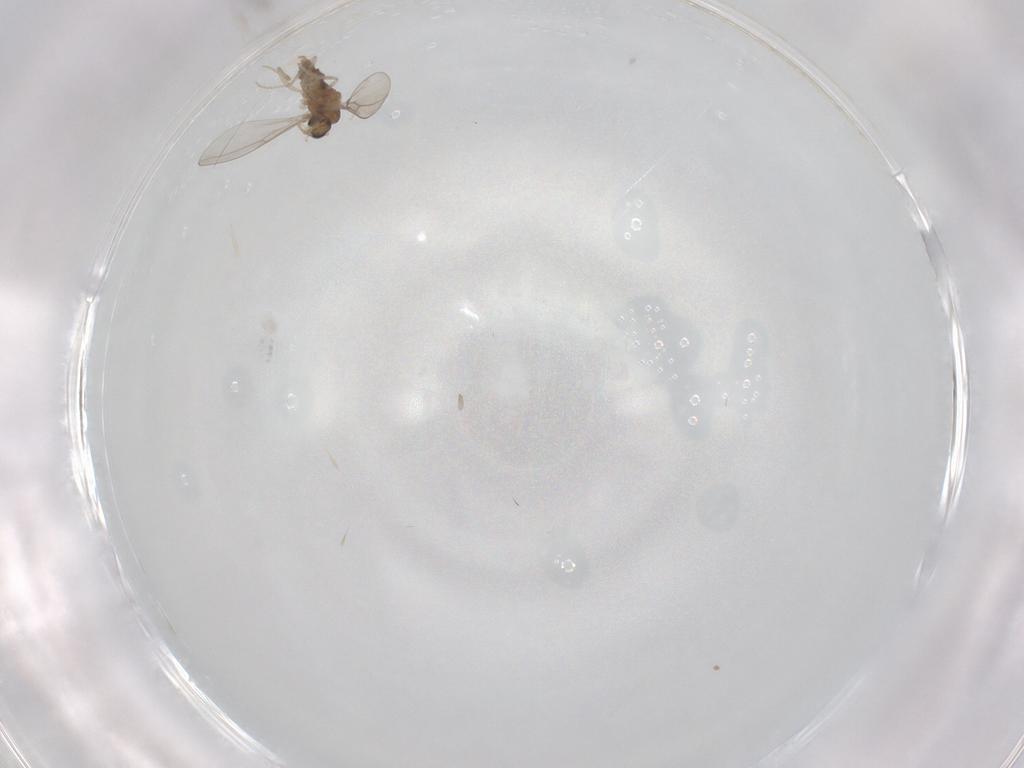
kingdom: Animalia
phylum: Arthropoda
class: Insecta
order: Diptera
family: Cecidomyiidae
